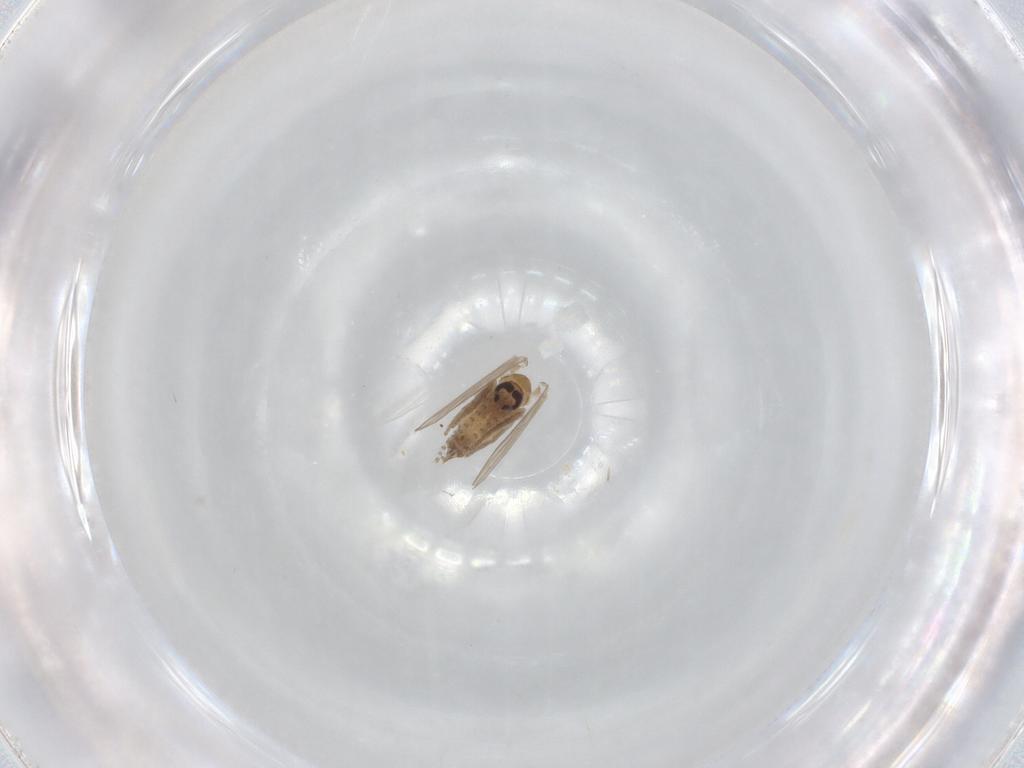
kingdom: Animalia
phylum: Arthropoda
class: Insecta
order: Diptera
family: Psychodidae
